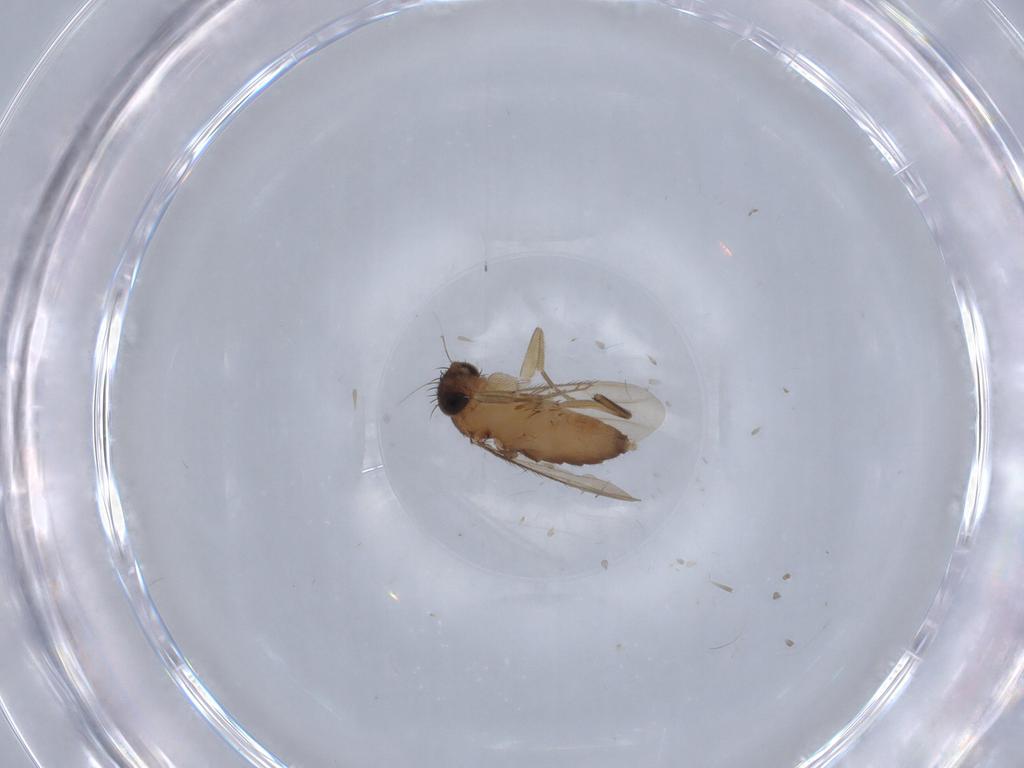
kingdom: Animalia
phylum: Arthropoda
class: Insecta
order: Diptera
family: Phoridae
